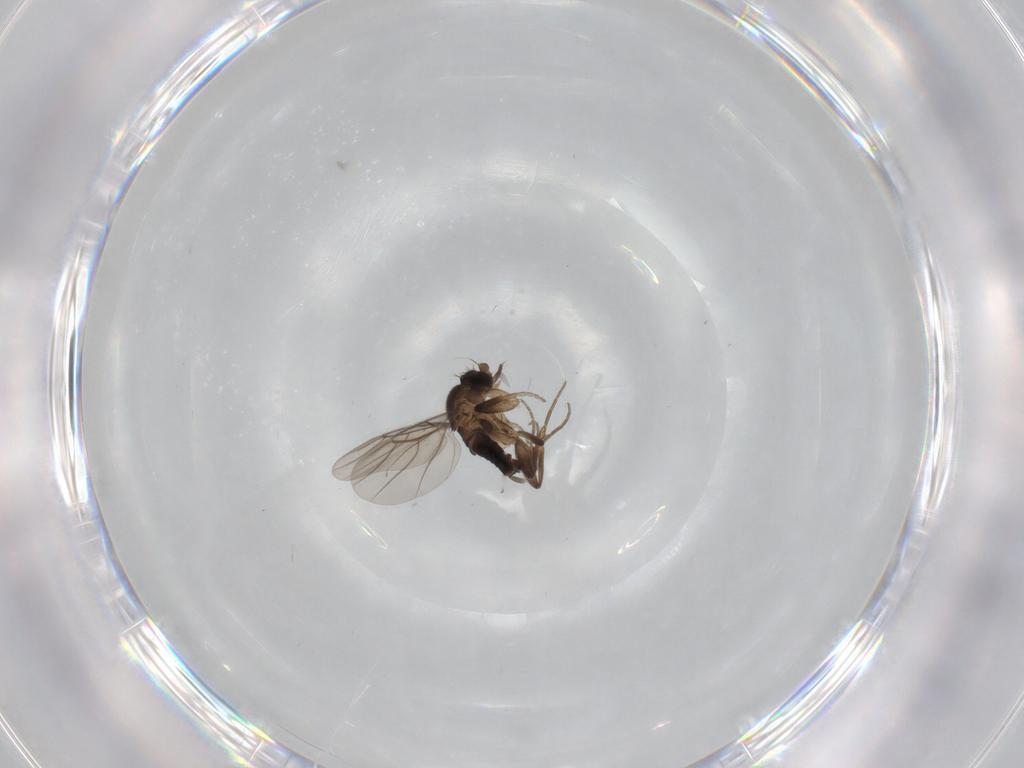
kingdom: Animalia
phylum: Arthropoda
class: Insecta
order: Diptera
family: Phoridae
